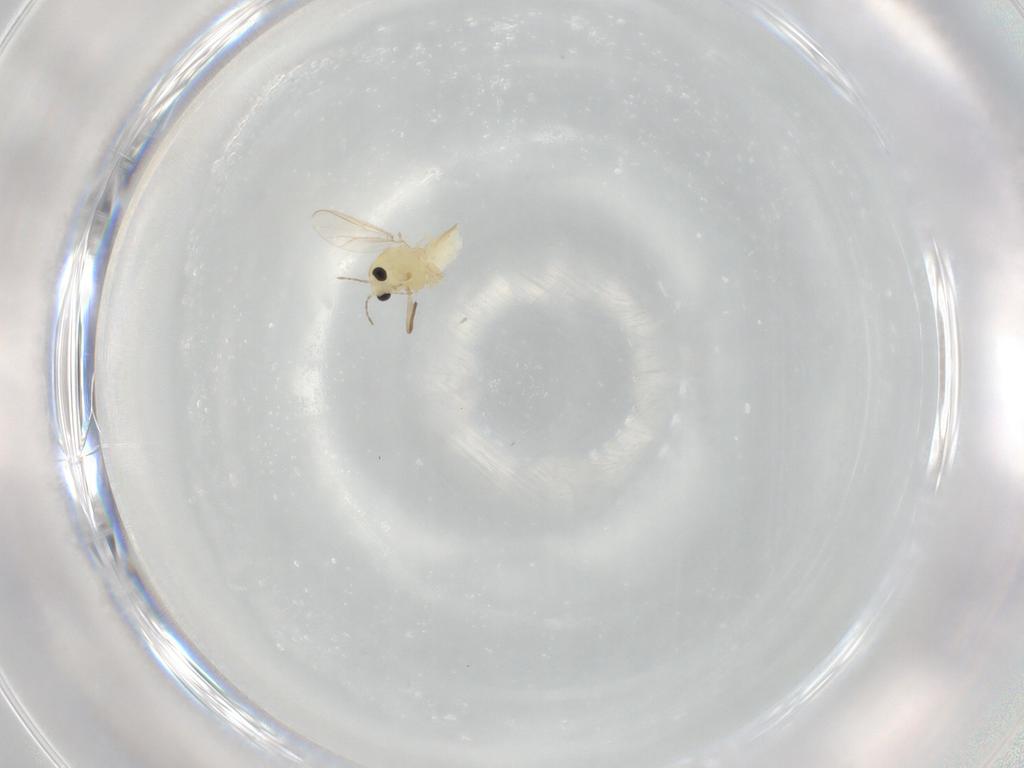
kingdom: Animalia
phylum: Arthropoda
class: Insecta
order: Diptera
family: Chironomidae
